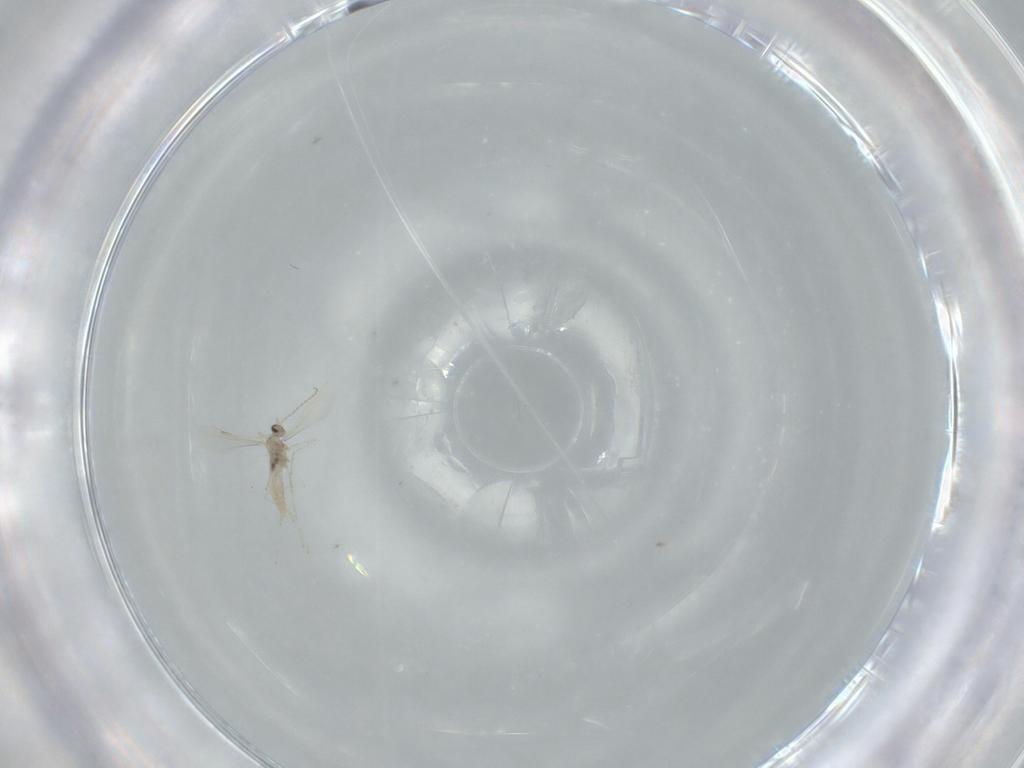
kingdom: Animalia
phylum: Arthropoda
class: Insecta
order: Diptera
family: Cecidomyiidae
